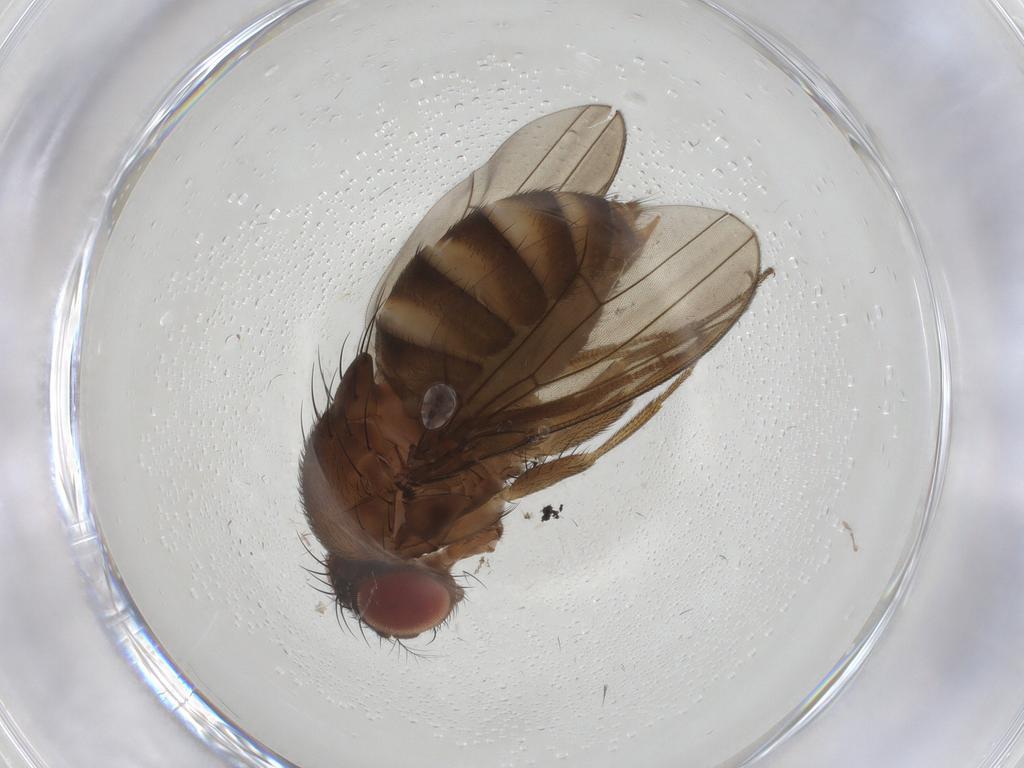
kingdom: Animalia
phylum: Arthropoda
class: Insecta
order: Diptera
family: Drosophilidae
